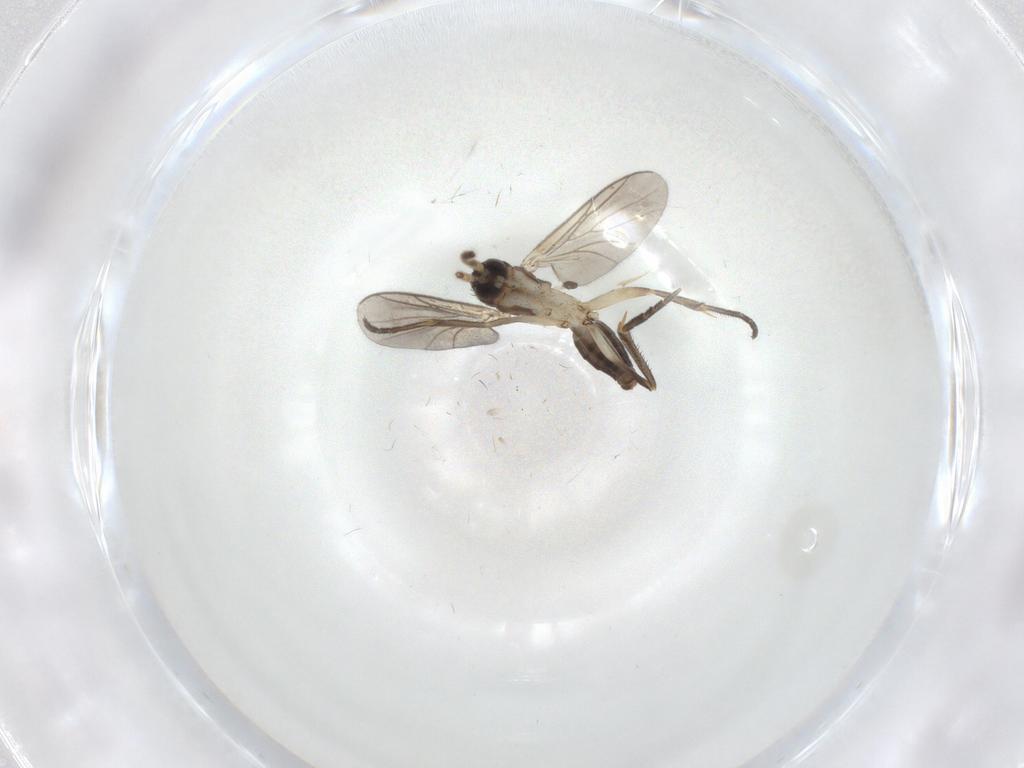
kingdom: Animalia
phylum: Arthropoda
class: Insecta
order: Diptera
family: Mycetophilidae
